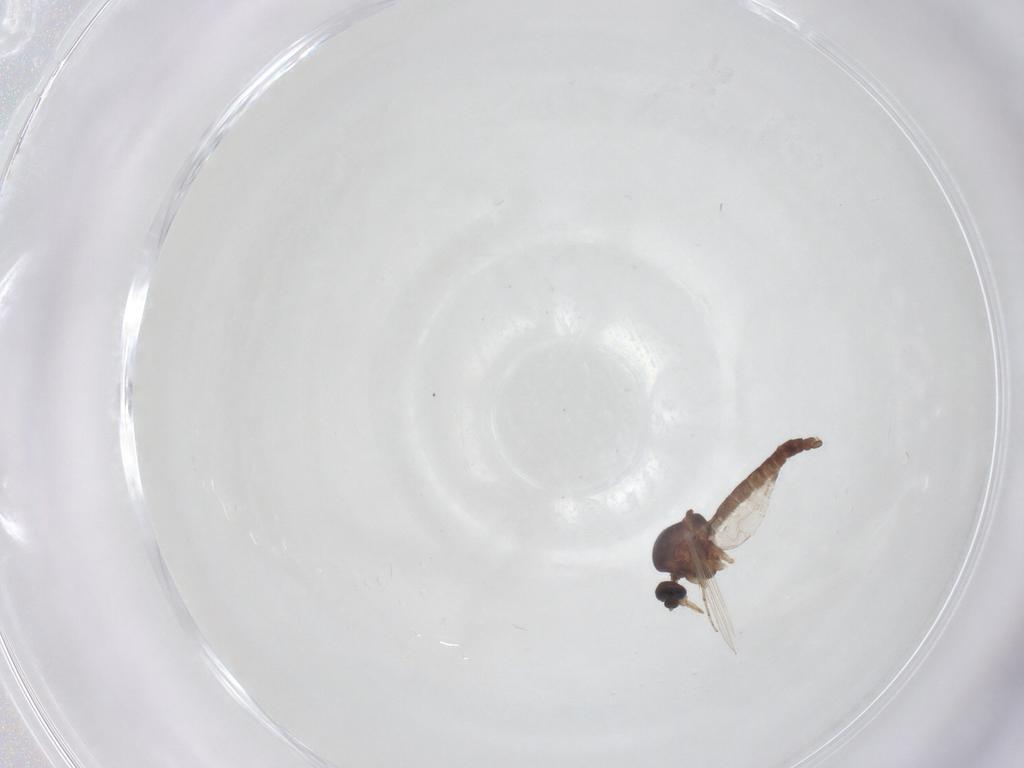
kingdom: Animalia
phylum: Arthropoda
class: Insecta
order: Diptera
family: Ceratopogonidae
